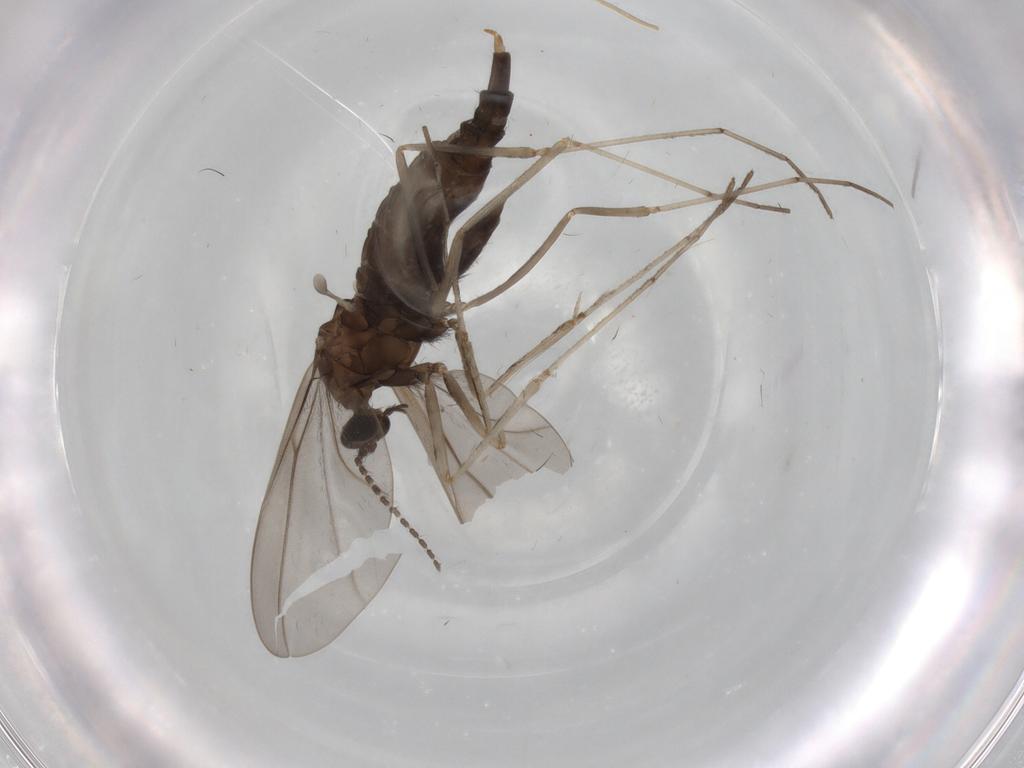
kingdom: Animalia
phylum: Arthropoda
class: Insecta
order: Diptera
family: Cecidomyiidae
